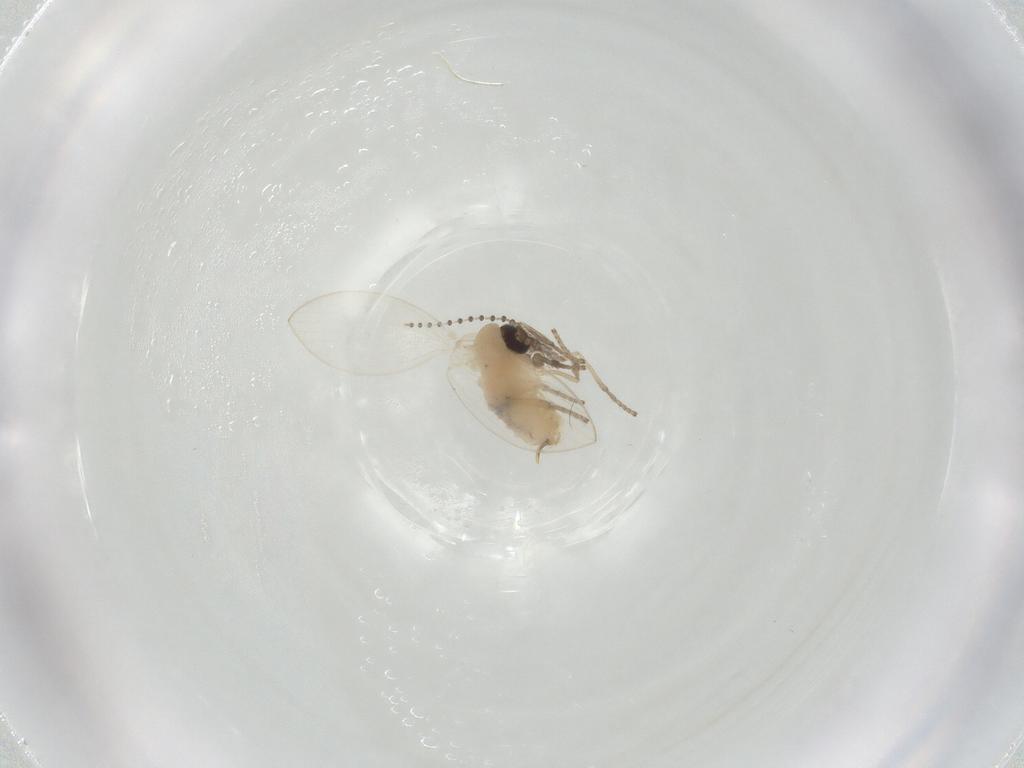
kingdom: Animalia
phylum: Arthropoda
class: Insecta
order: Diptera
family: Psychodidae
